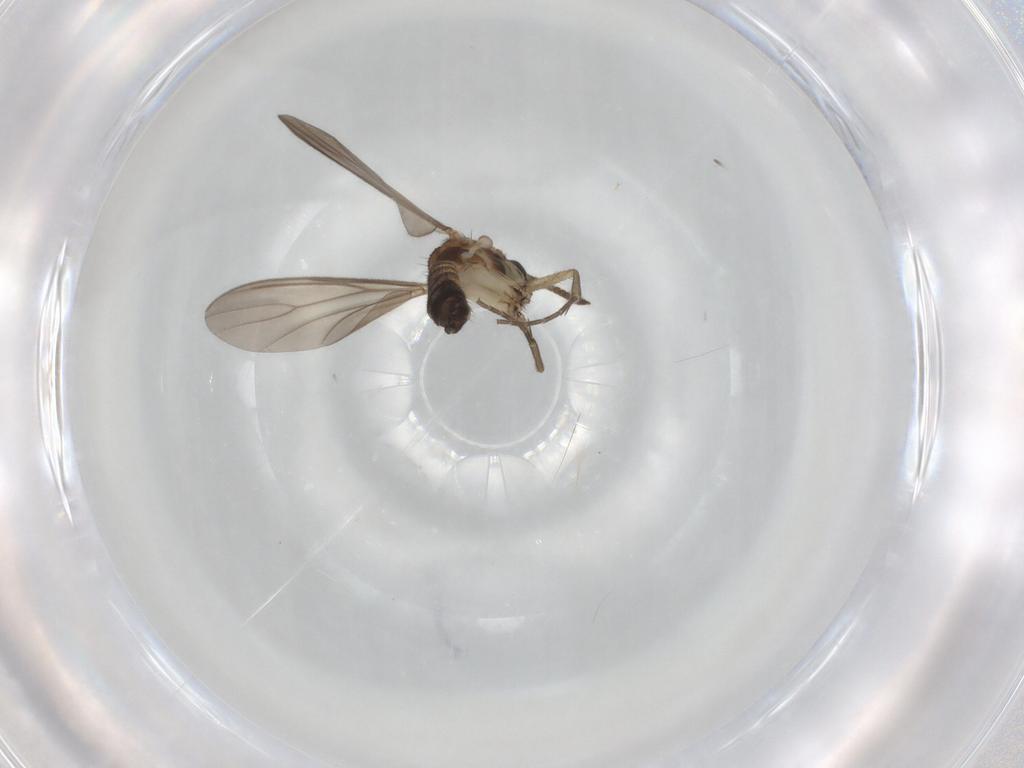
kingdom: Animalia
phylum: Arthropoda
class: Insecta
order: Diptera
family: Mycetophilidae
